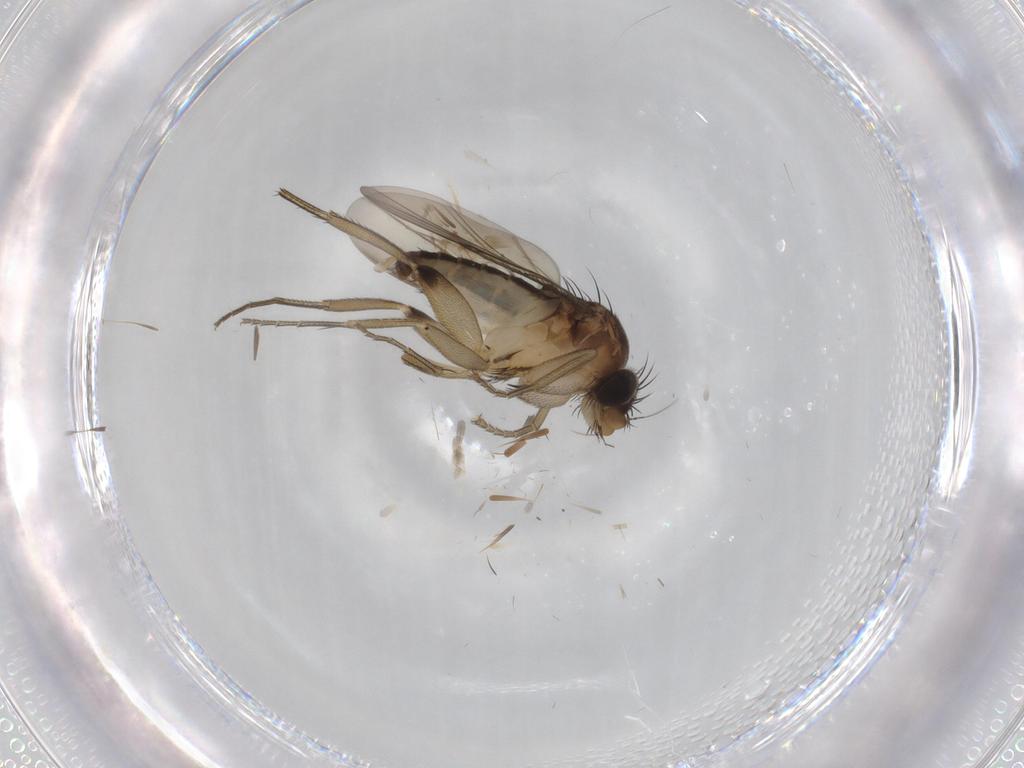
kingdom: Animalia
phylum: Arthropoda
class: Insecta
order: Diptera
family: Phoridae
